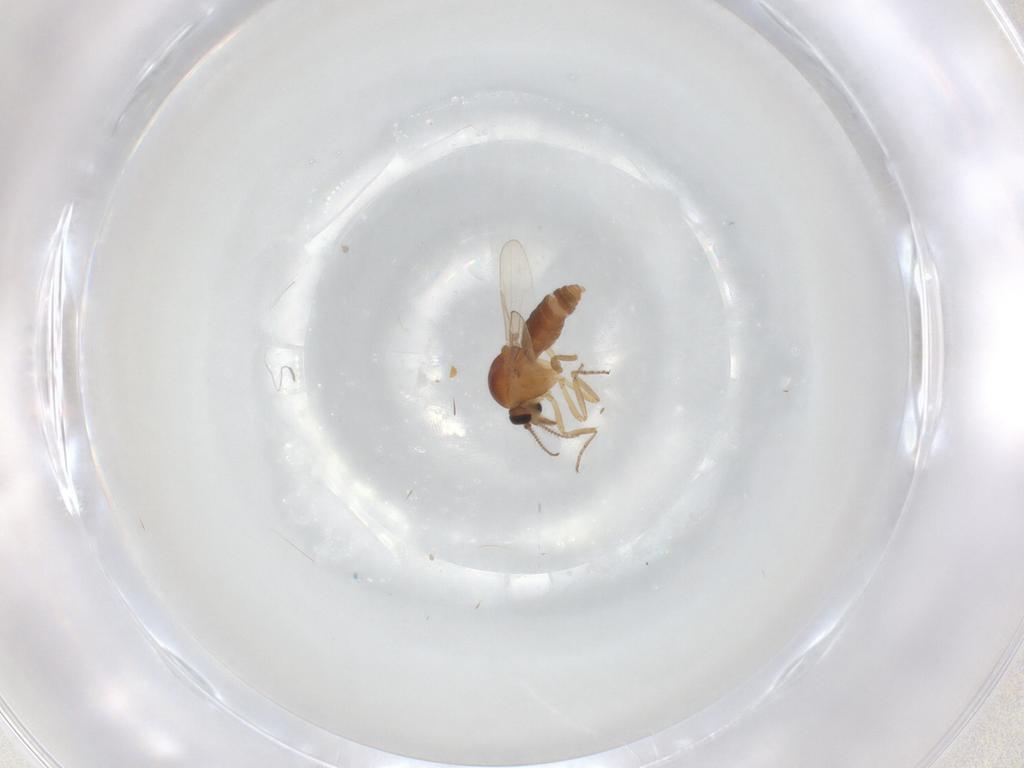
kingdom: Animalia
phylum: Arthropoda
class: Insecta
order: Diptera
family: Ceratopogonidae
